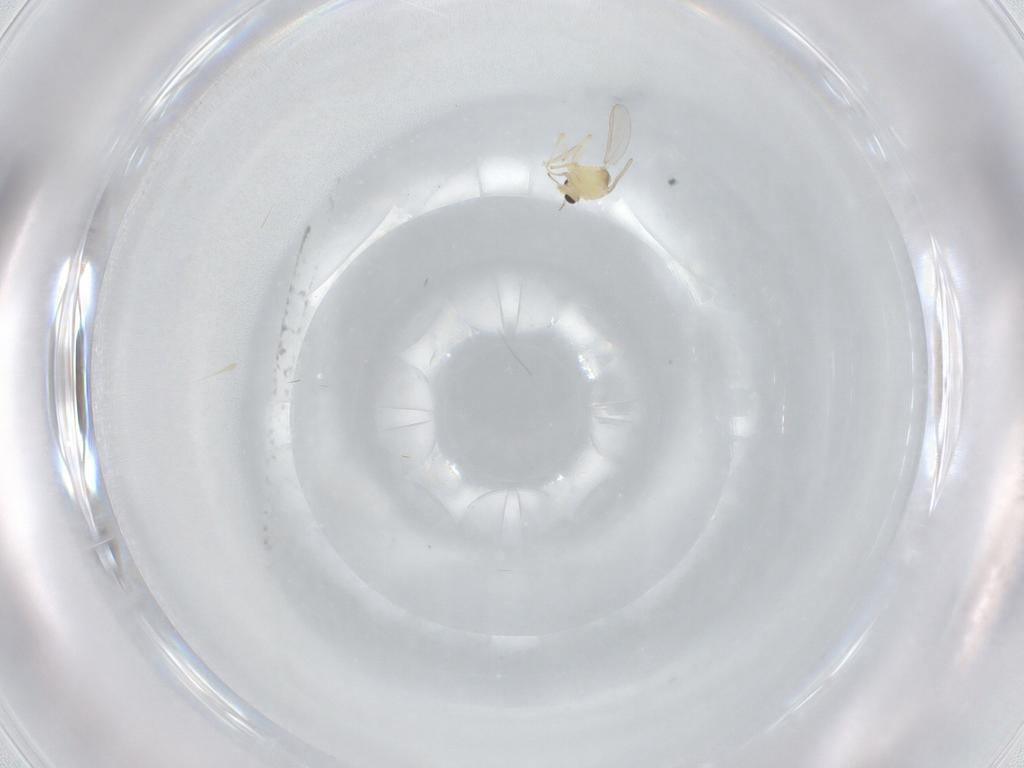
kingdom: Animalia
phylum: Arthropoda
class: Insecta
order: Diptera
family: Chironomidae
